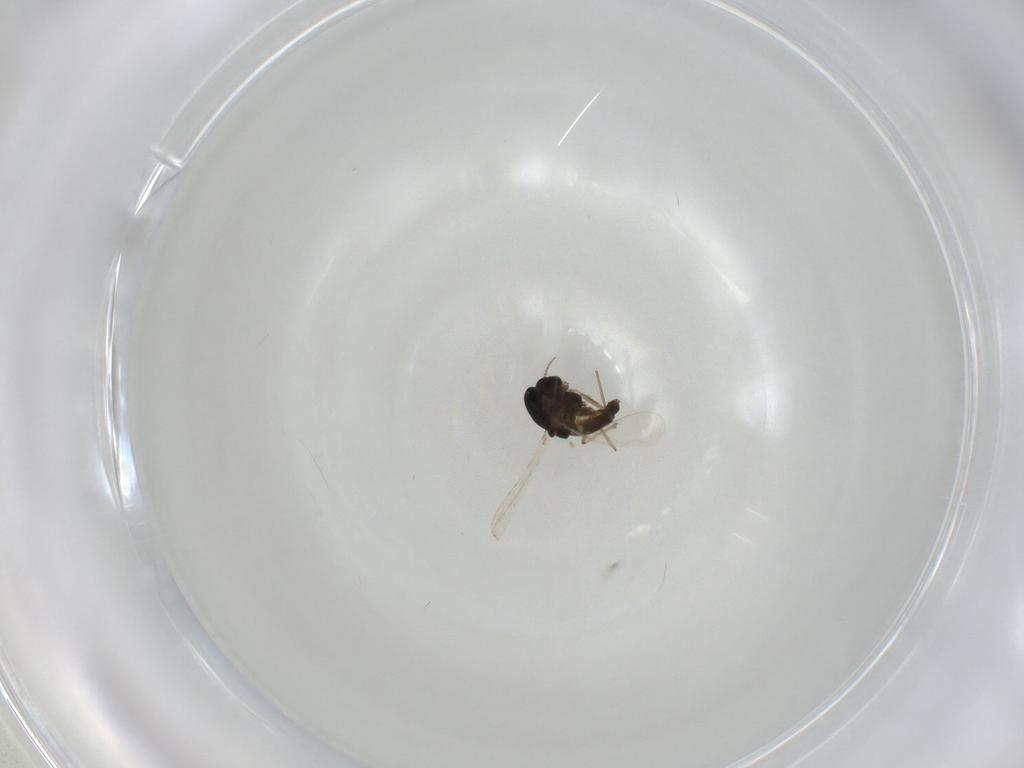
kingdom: Animalia
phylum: Arthropoda
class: Insecta
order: Diptera
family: Chironomidae
